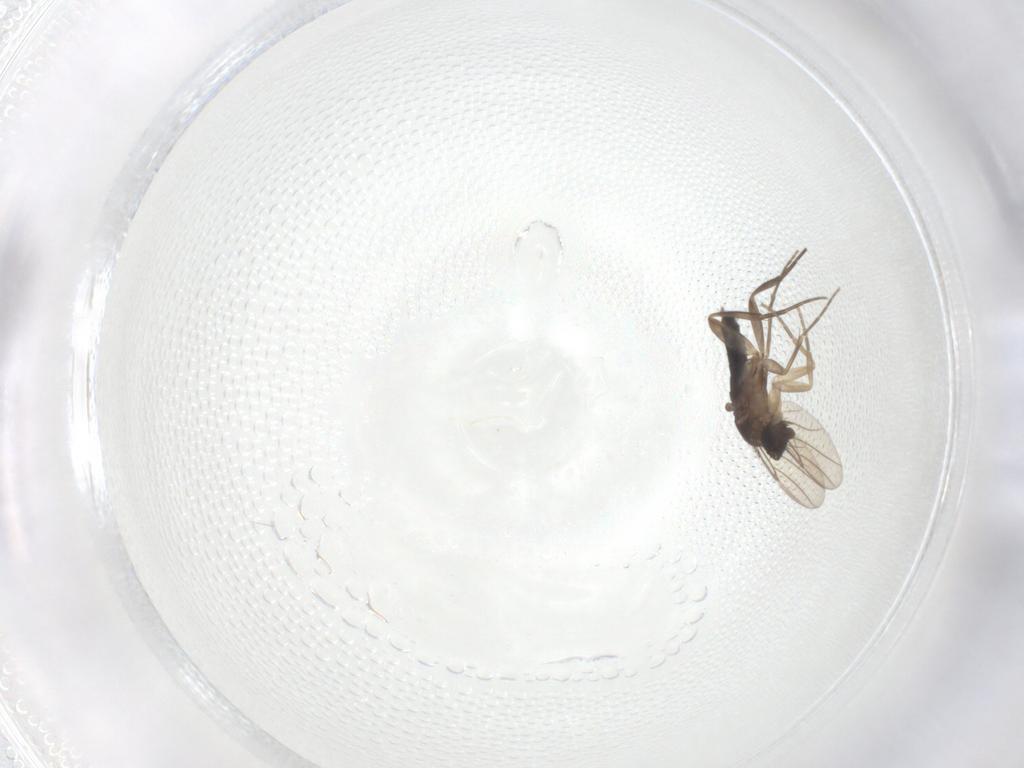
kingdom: Animalia
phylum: Arthropoda
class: Insecta
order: Diptera
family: Phoridae
